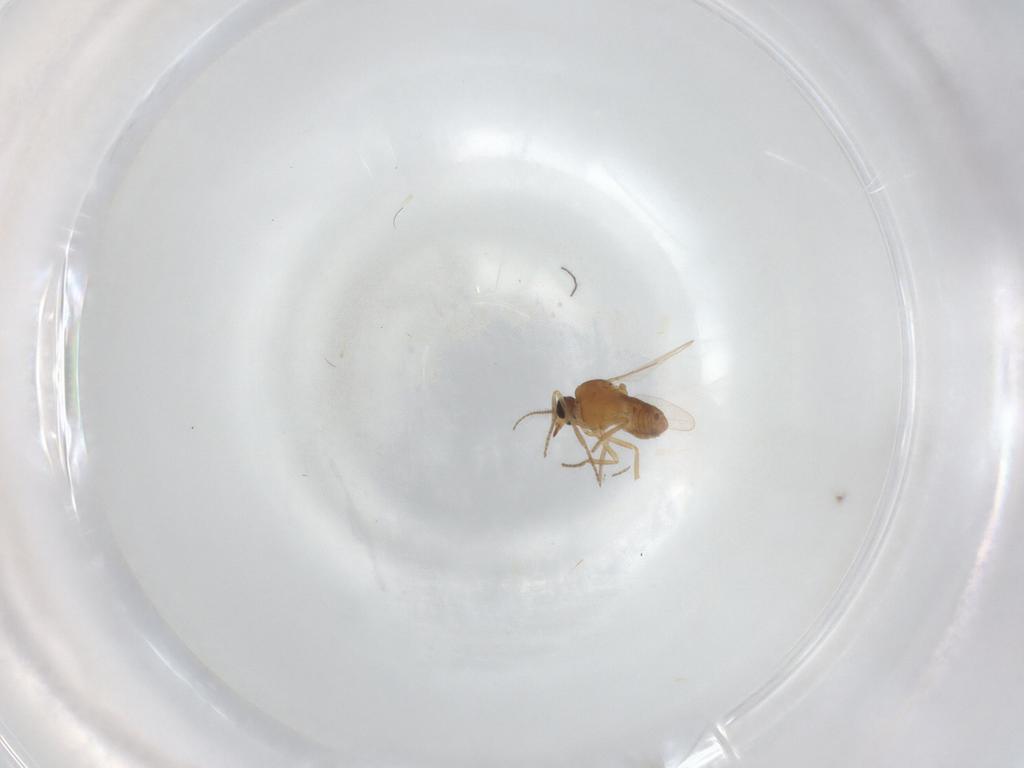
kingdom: Animalia
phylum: Arthropoda
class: Insecta
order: Diptera
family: Ceratopogonidae
